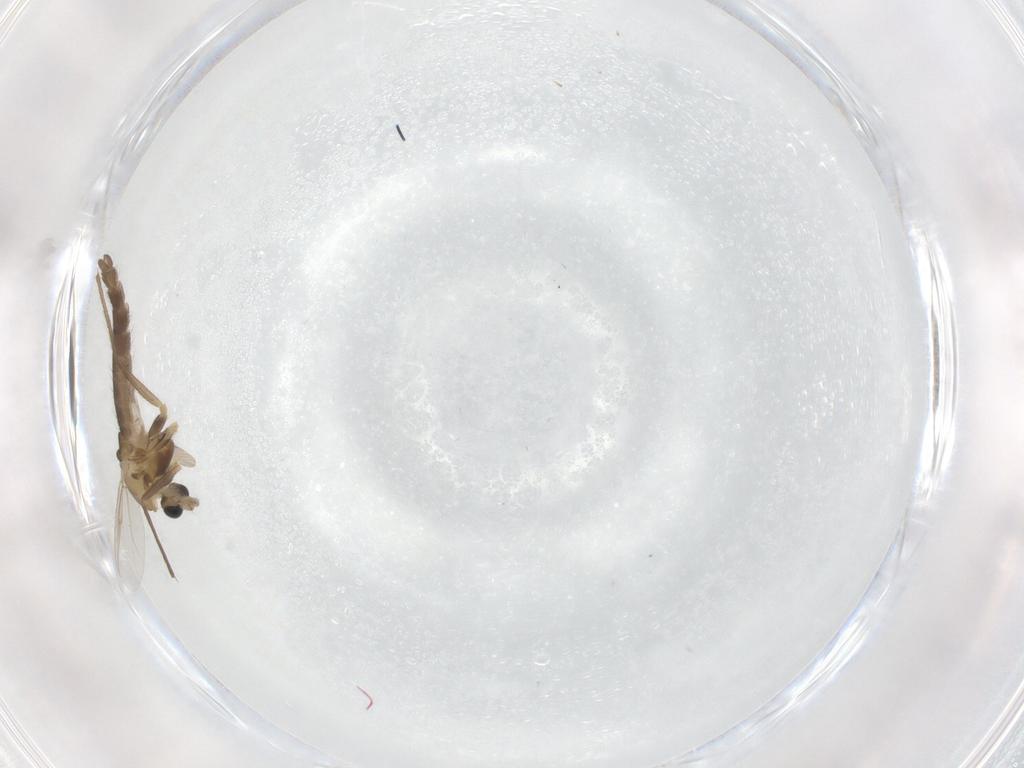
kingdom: Animalia
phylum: Arthropoda
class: Insecta
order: Diptera
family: Chironomidae
